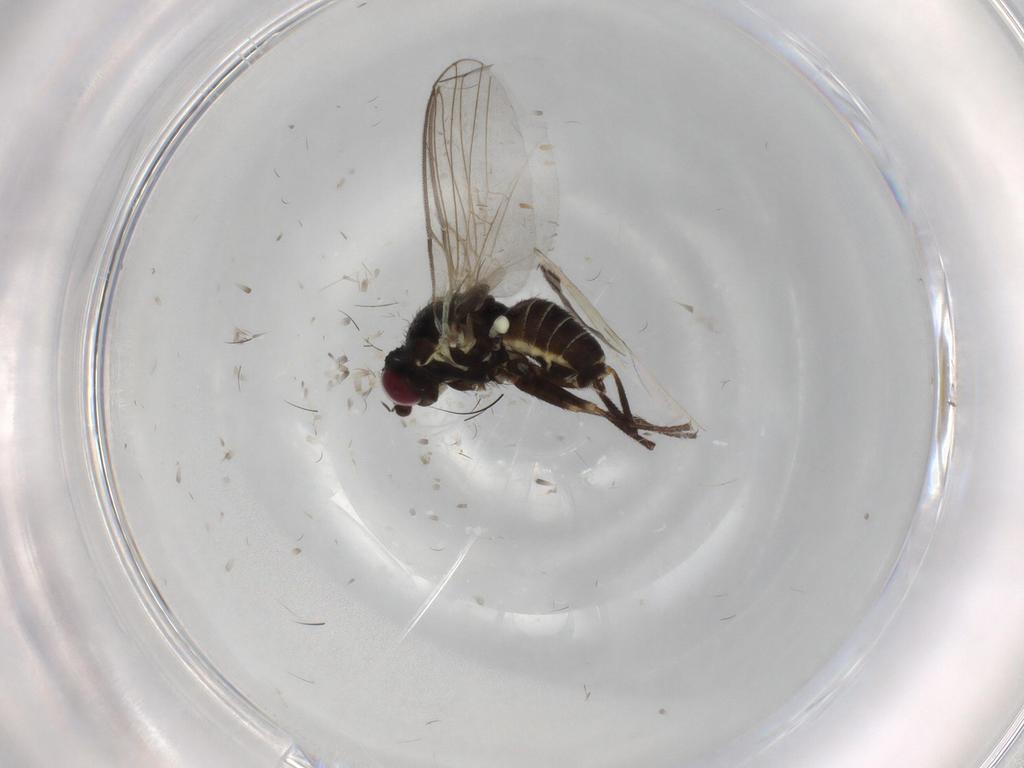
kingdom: Animalia
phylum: Arthropoda
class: Insecta
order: Diptera
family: Sciaridae
